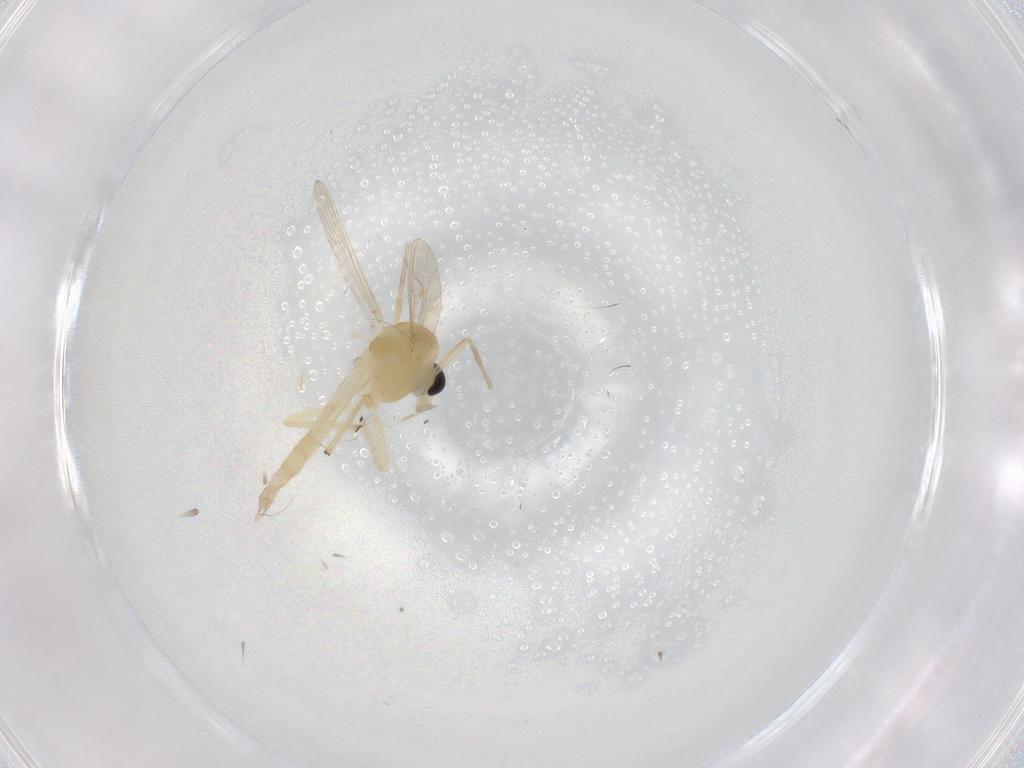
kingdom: Animalia
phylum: Arthropoda
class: Insecta
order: Diptera
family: Chironomidae
